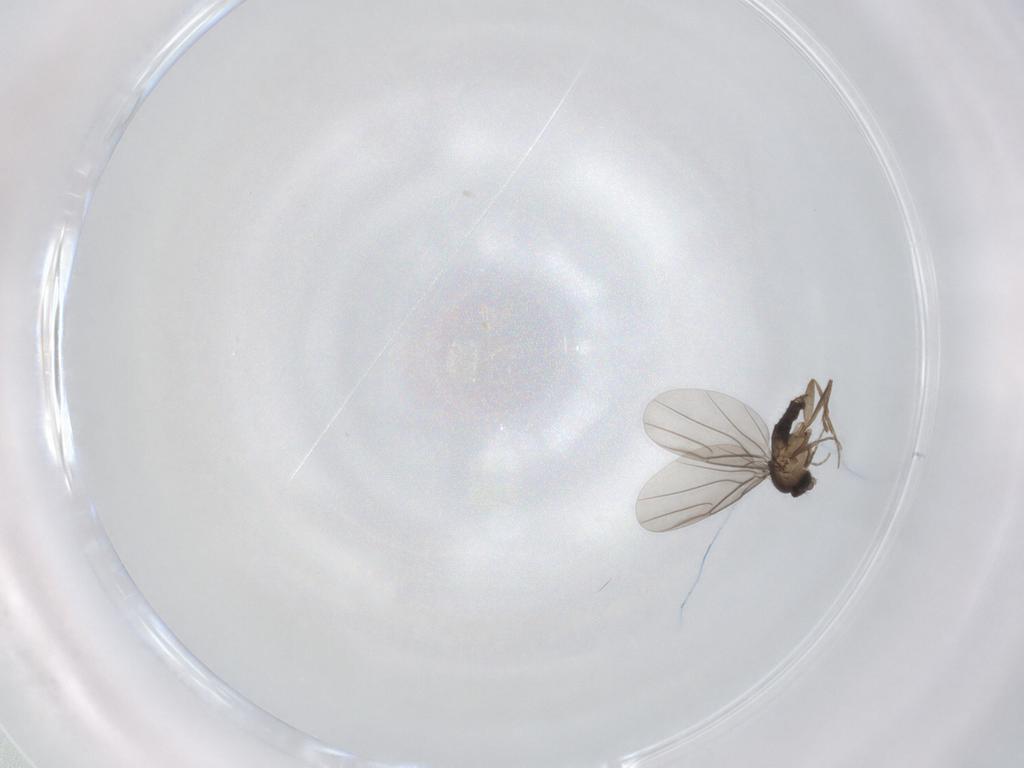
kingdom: Animalia
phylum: Arthropoda
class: Insecta
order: Diptera
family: Phoridae
